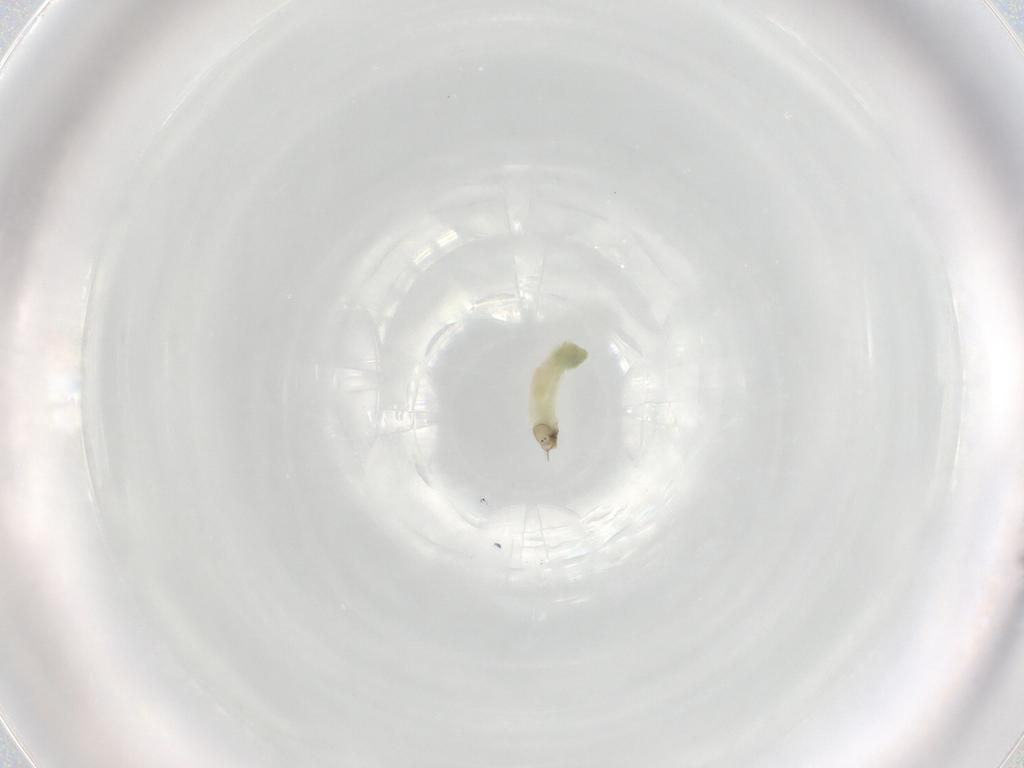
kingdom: Animalia
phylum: Arthropoda
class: Insecta
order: Diptera
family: Chironomidae
